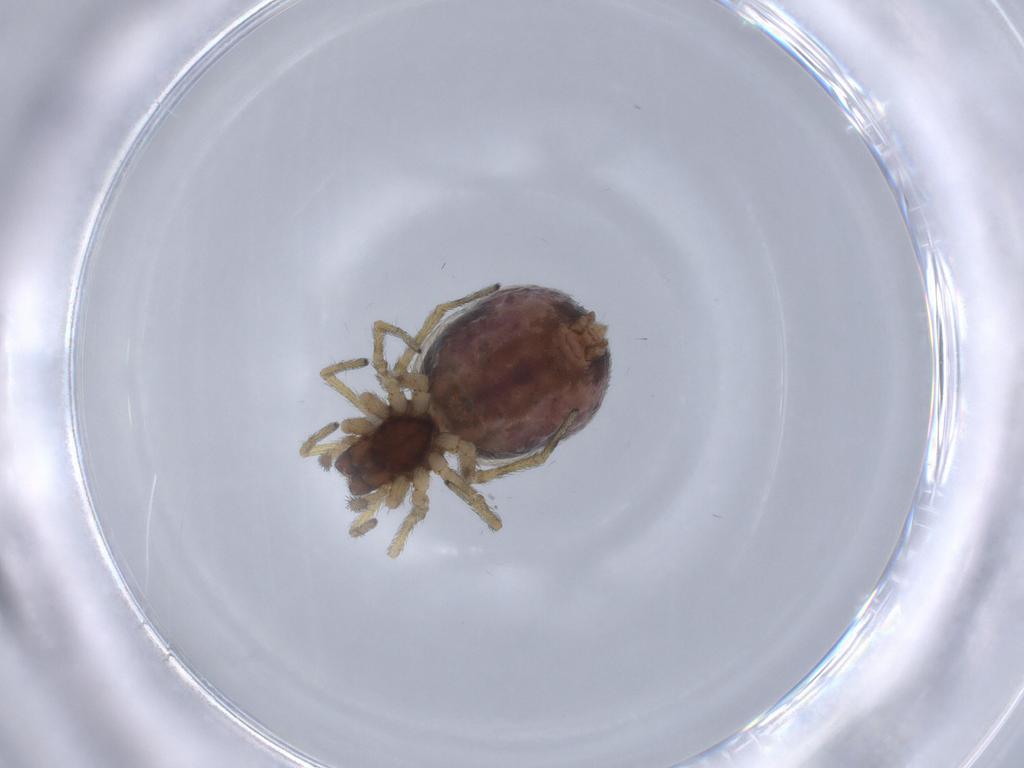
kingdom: Animalia
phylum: Arthropoda
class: Arachnida
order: Araneae
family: Dictynidae
